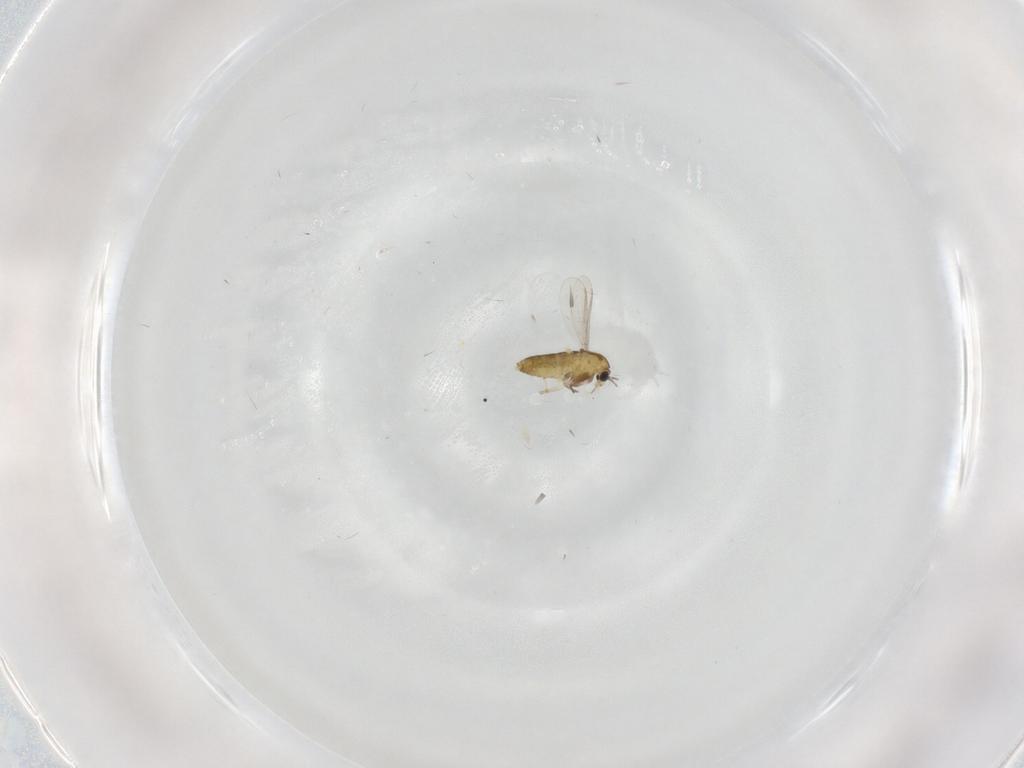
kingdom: Animalia
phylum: Arthropoda
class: Insecta
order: Diptera
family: Chironomidae
